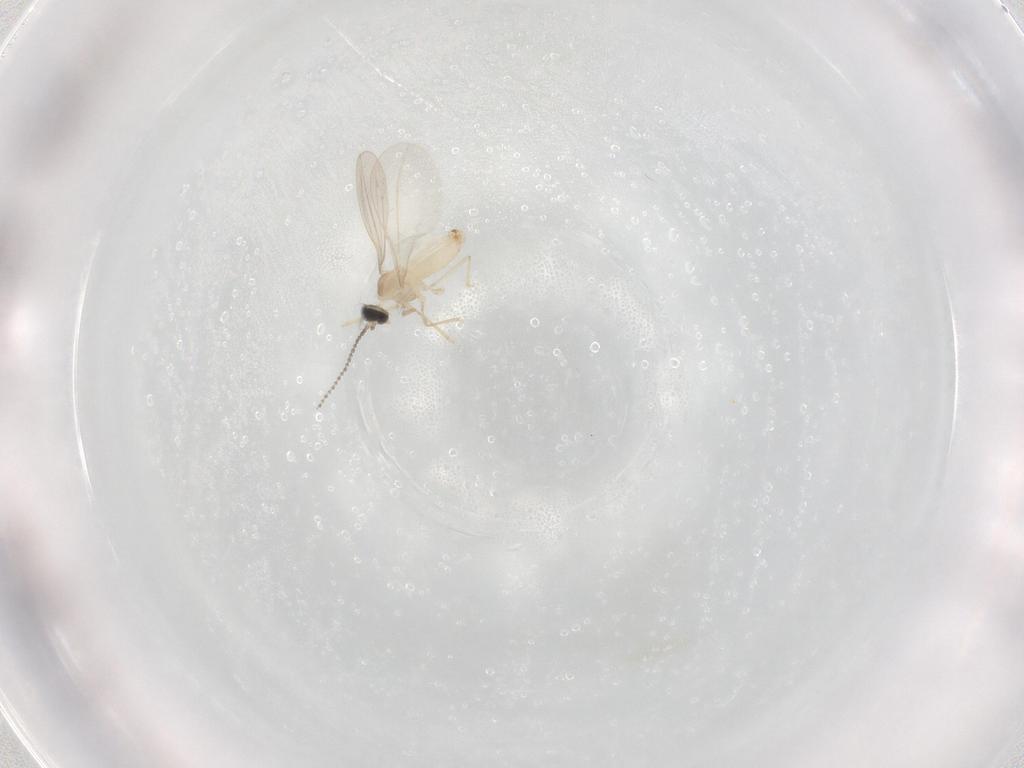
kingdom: Animalia
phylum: Arthropoda
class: Insecta
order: Diptera
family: Cecidomyiidae
